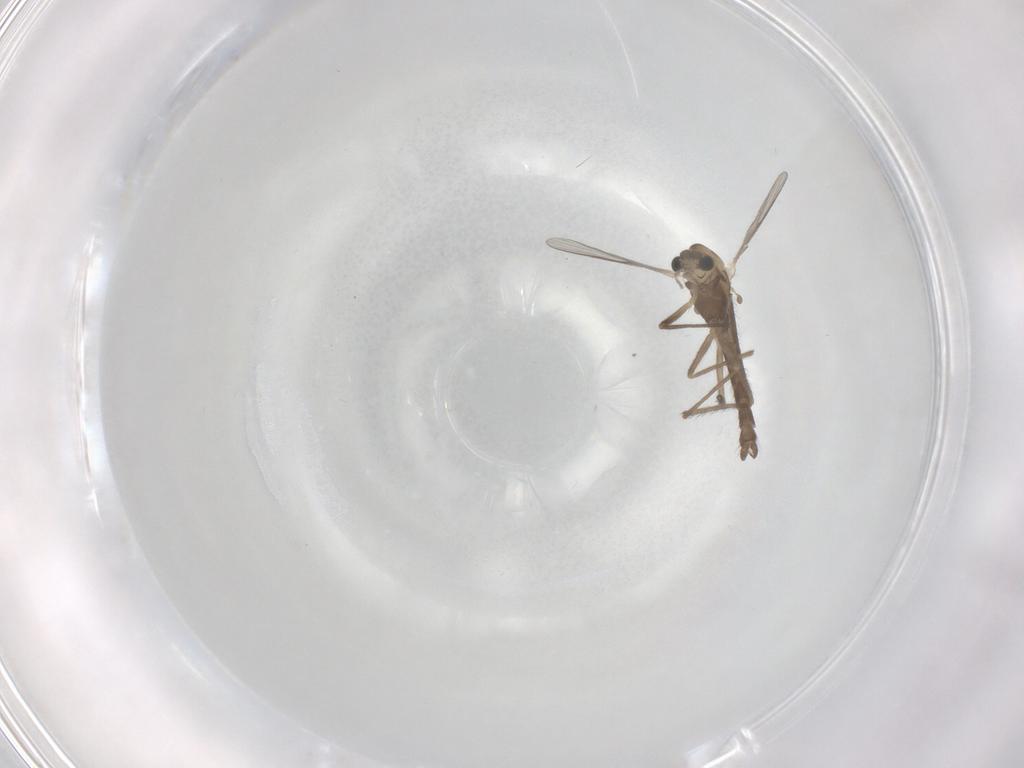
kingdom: Animalia
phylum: Arthropoda
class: Insecta
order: Diptera
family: Chironomidae
